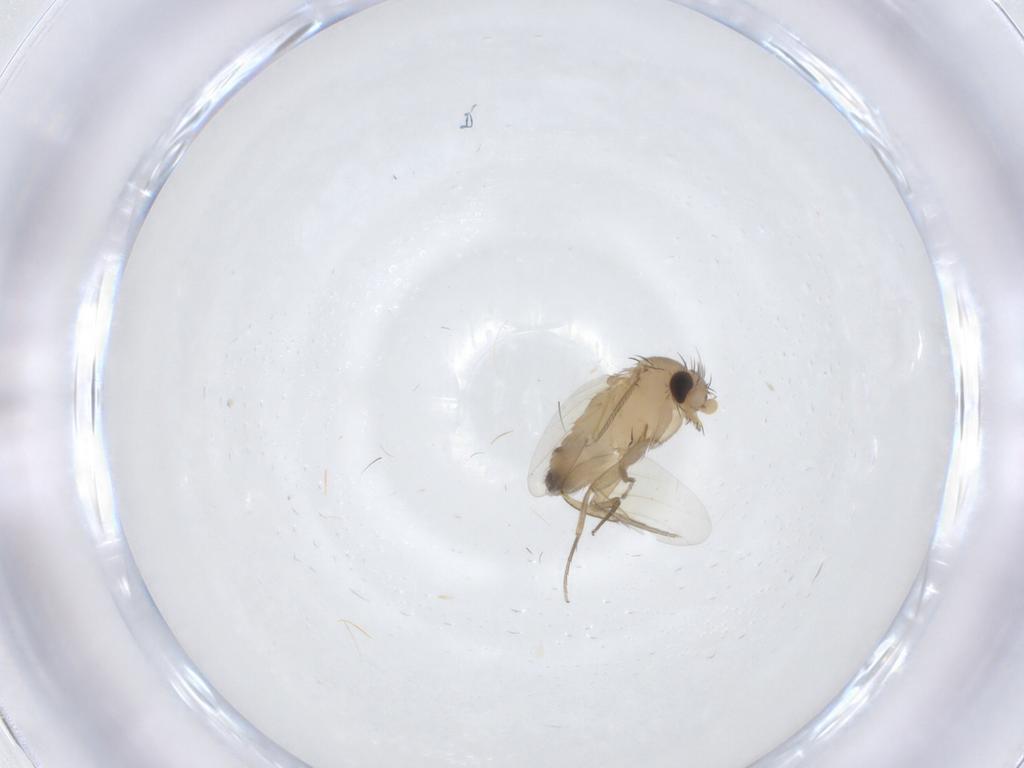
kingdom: Animalia
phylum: Arthropoda
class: Insecta
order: Diptera
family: Phoridae
